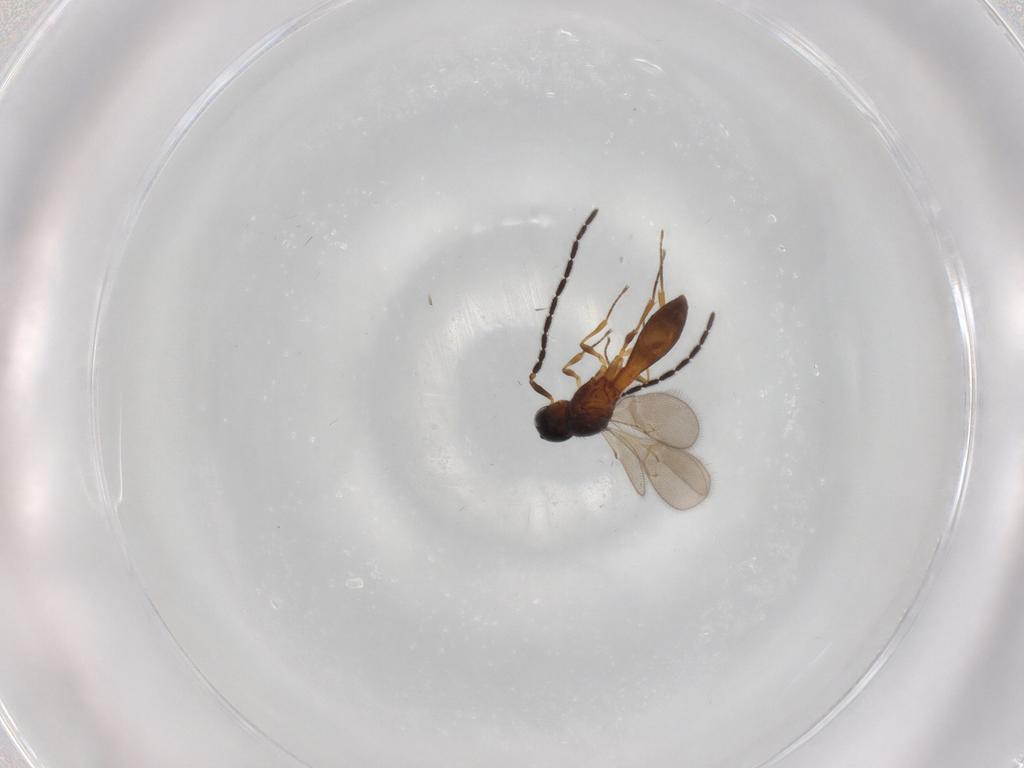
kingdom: Animalia
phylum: Arthropoda
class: Insecta
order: Hymenoptera
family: Scelionidae
